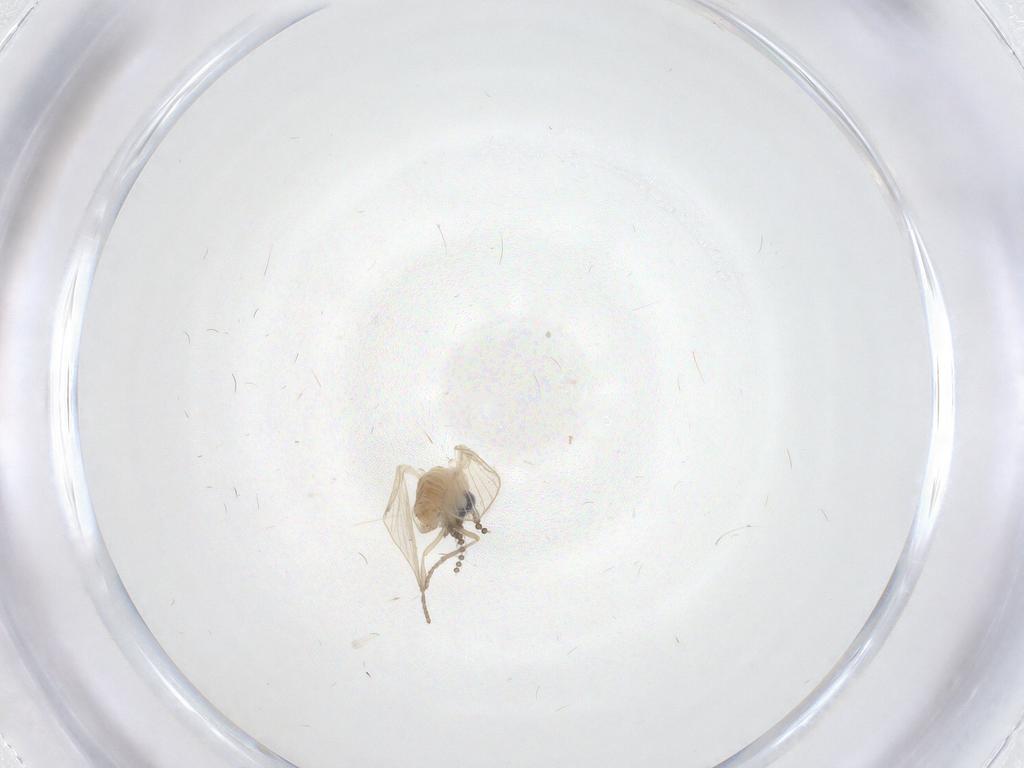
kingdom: Animalia
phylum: Arthropoda
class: Insecta
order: Diptera
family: Psychodidae
